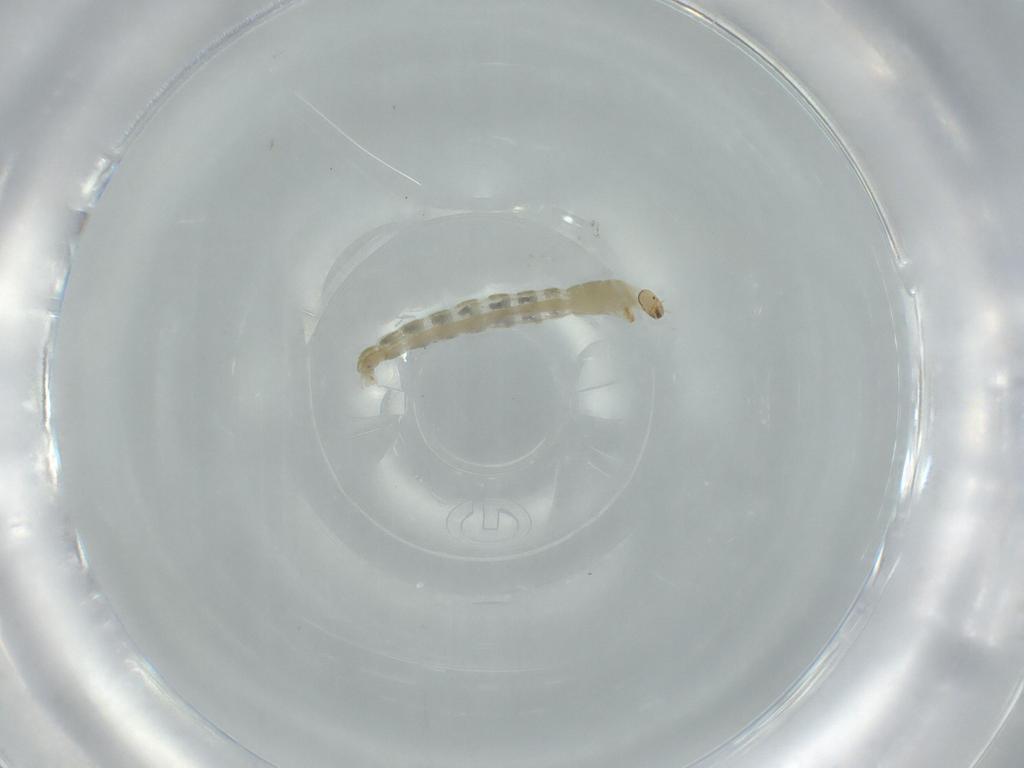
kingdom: Animalia
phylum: Arthropoda
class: Insecta
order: Diptera
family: Chironomidae
